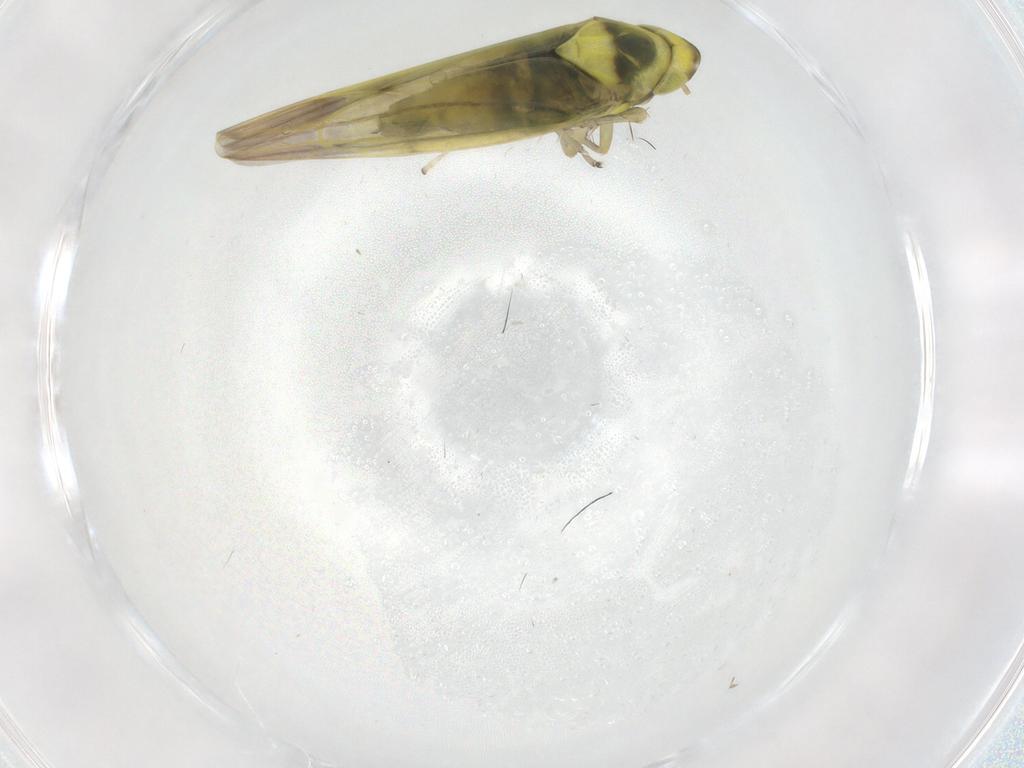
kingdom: Animalia
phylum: Arthropoda
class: Insecta
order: Hemiptera
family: Cicadellidae
